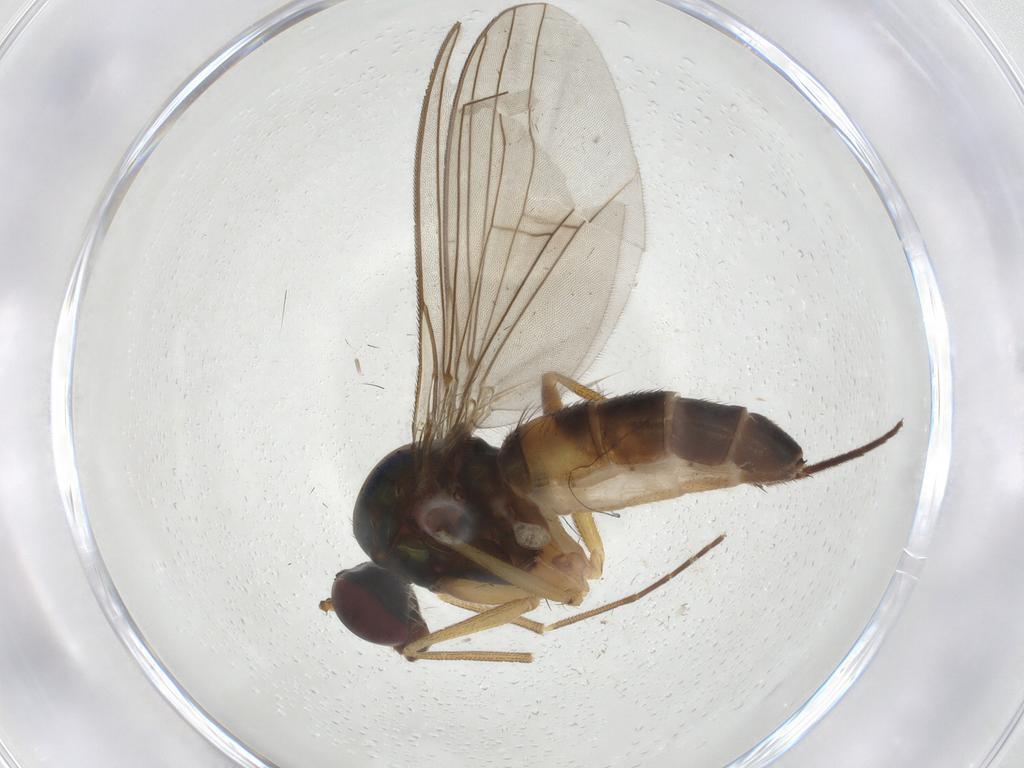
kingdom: Animalia
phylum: Arthropoda
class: Insecta
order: Diptera
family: Dolichopodidae
